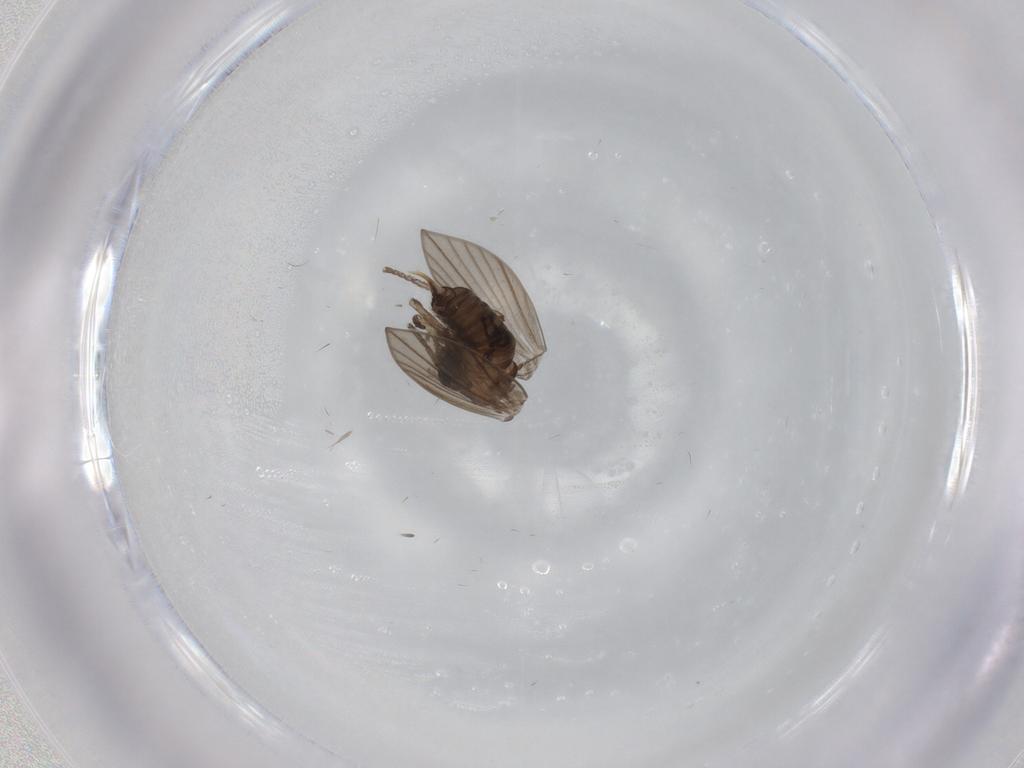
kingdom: Animalia
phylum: Arthropoda
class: Insecta
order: Diptera
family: Psychodidae
